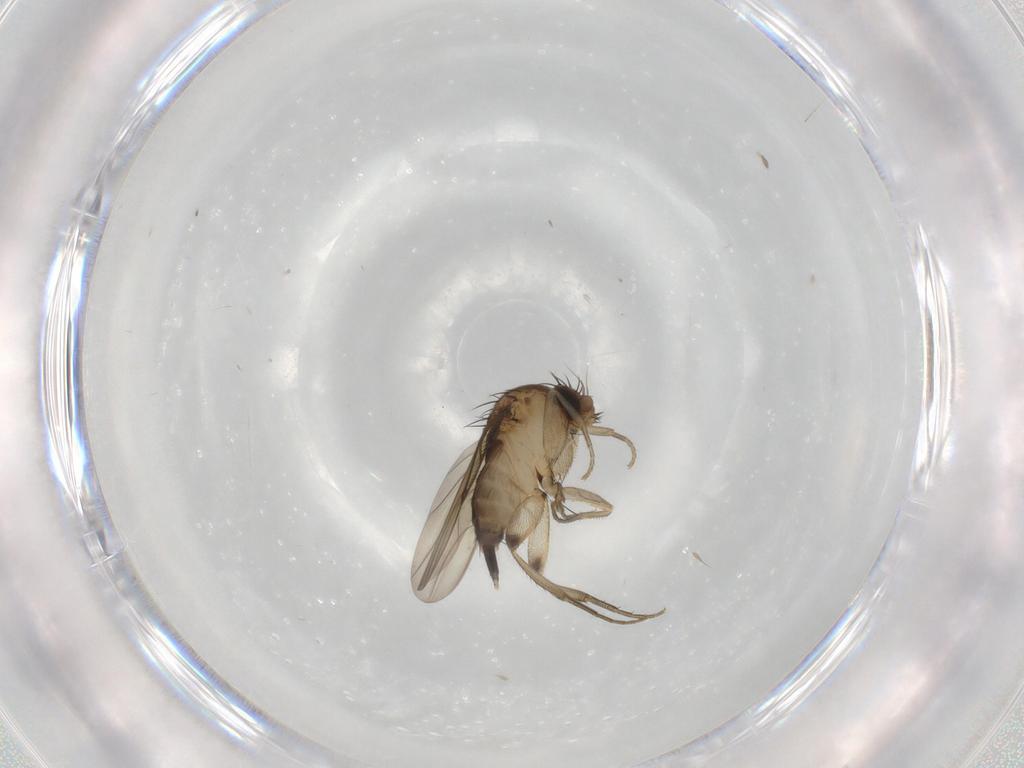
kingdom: Animalia
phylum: Arthropoda
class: Insecta
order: Diptera
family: Phoridae
